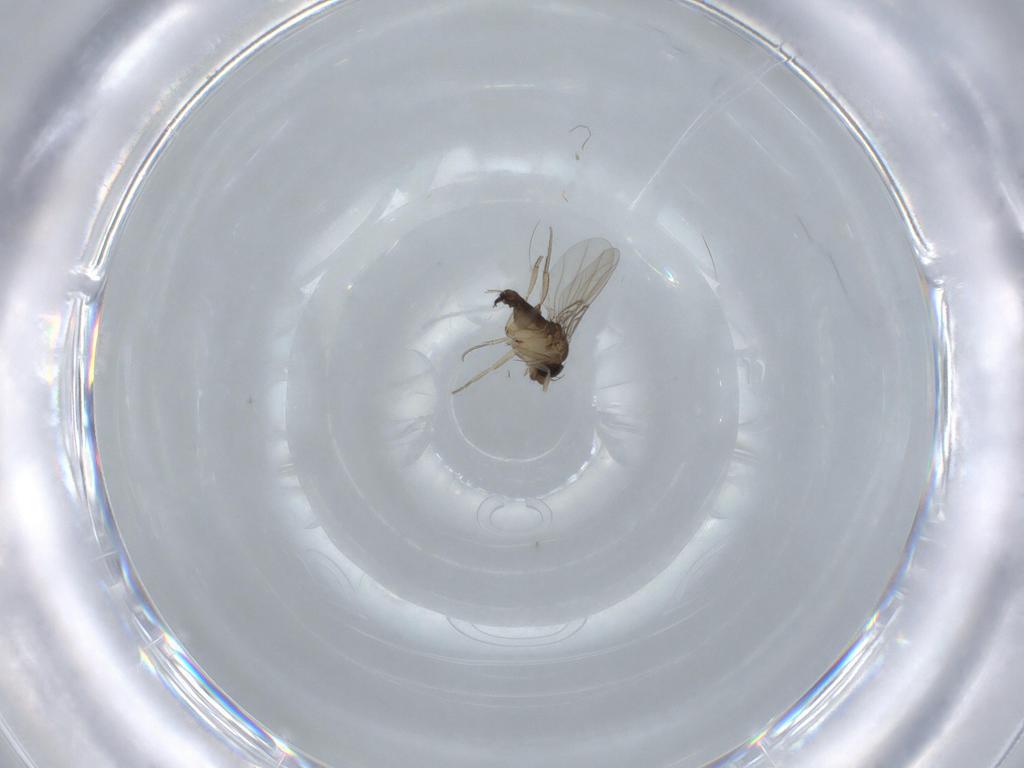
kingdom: Animalia
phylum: Arthropoda
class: Insecta
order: Diptera
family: Phoridae
